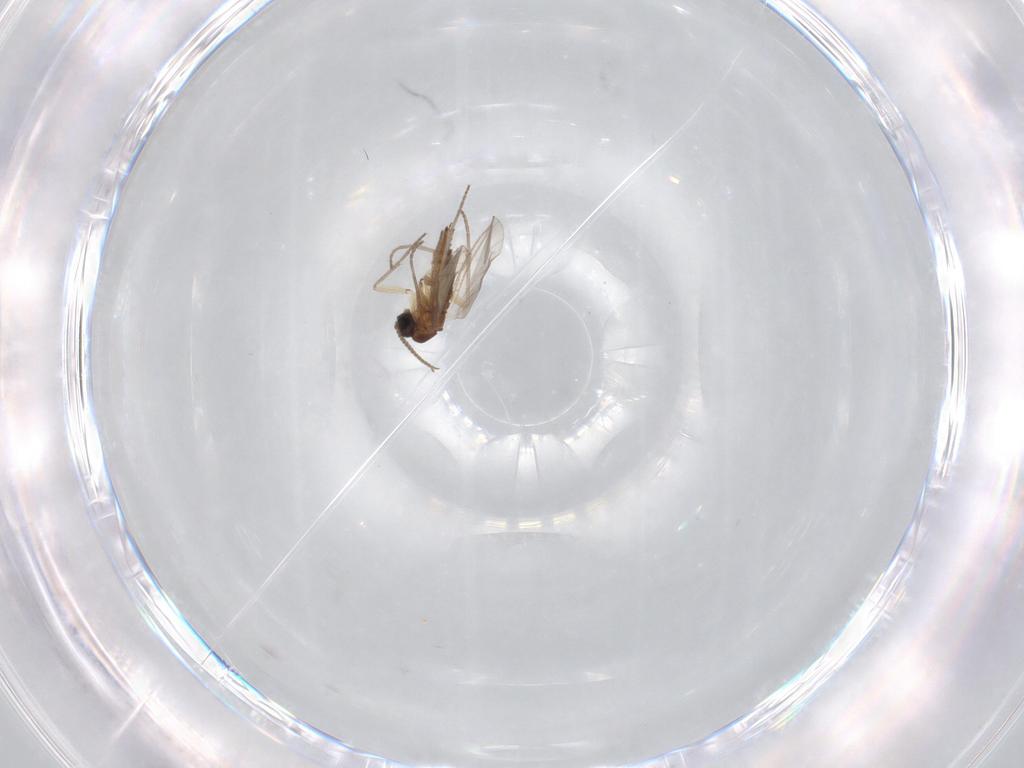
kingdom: Animalia
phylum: Arthropoda
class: Insecta
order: Diptera
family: Sciaridae
